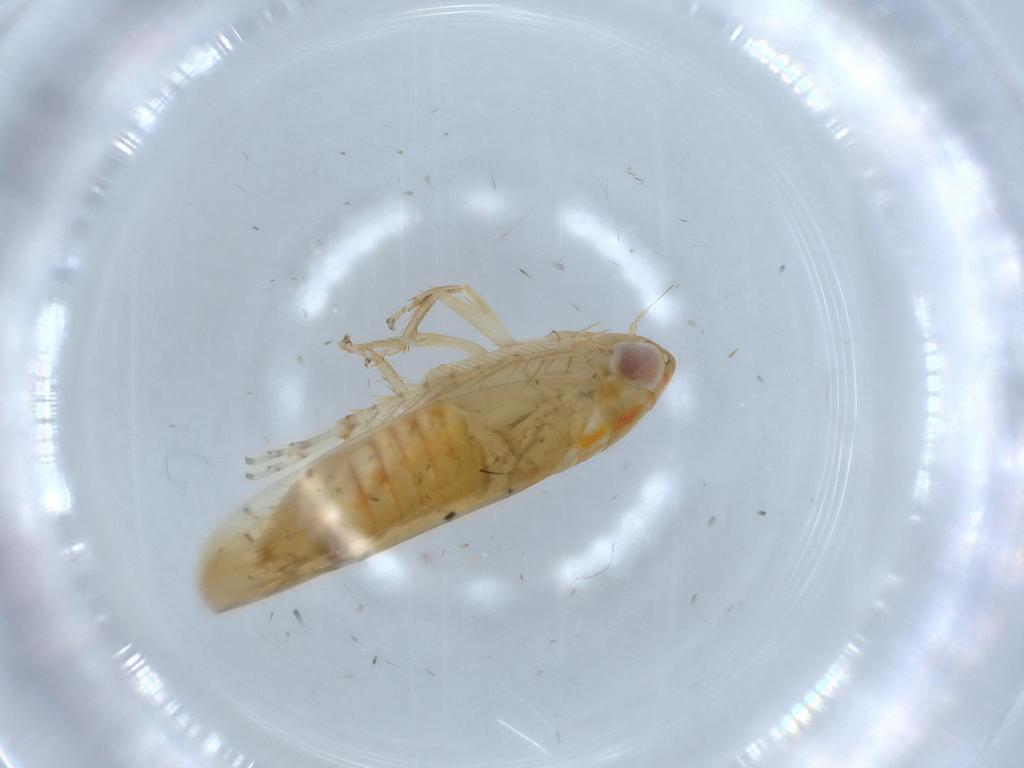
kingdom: Animalia
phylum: Arthropoda
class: Insecta
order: Hemiptera
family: Cicadellidae
